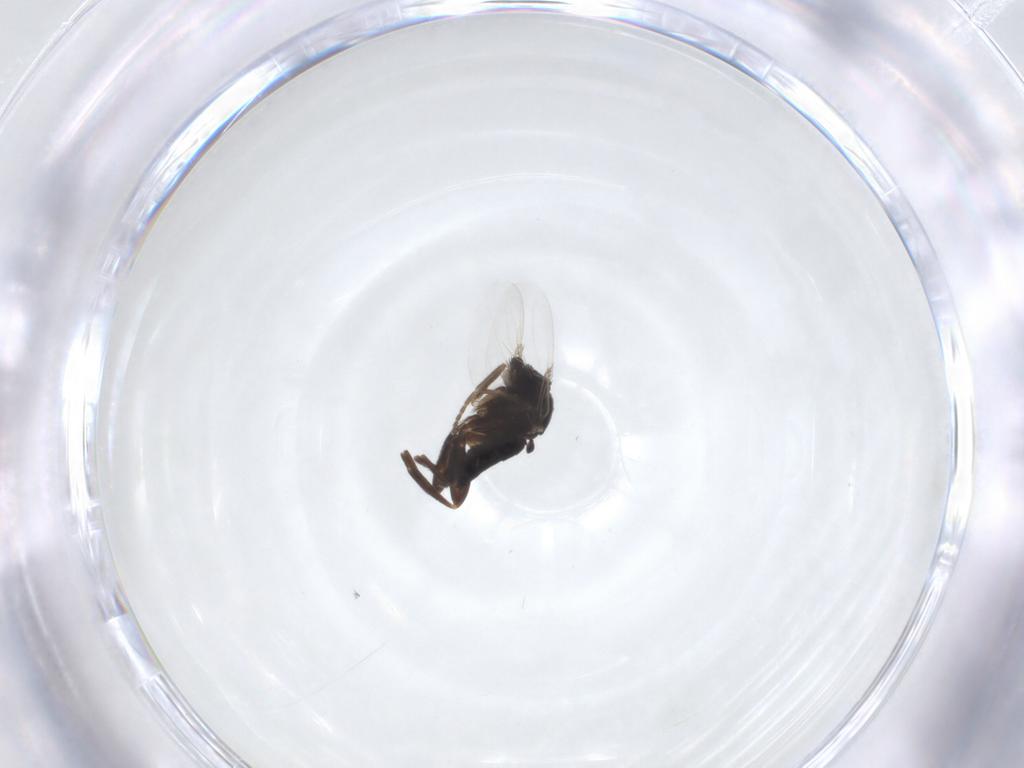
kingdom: Animalia
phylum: Arthropoda
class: Insecta
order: Diptera
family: Phoridae
